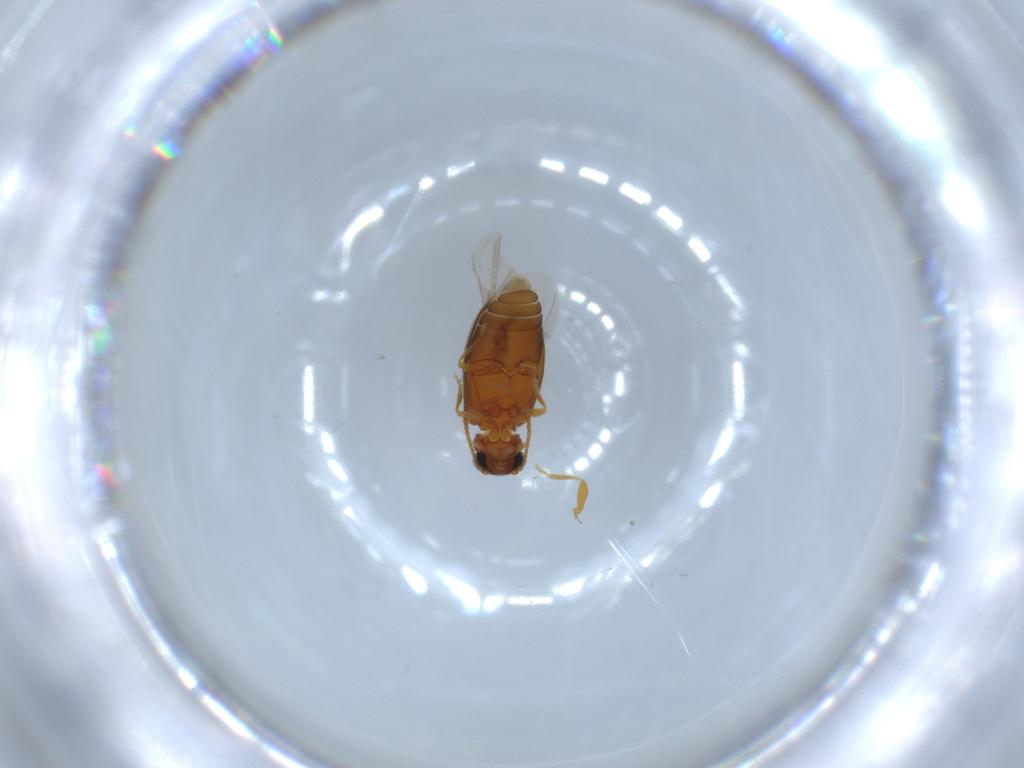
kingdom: Animalia
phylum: Arthropoda
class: Insecta
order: Coleoptera
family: Aderidae
